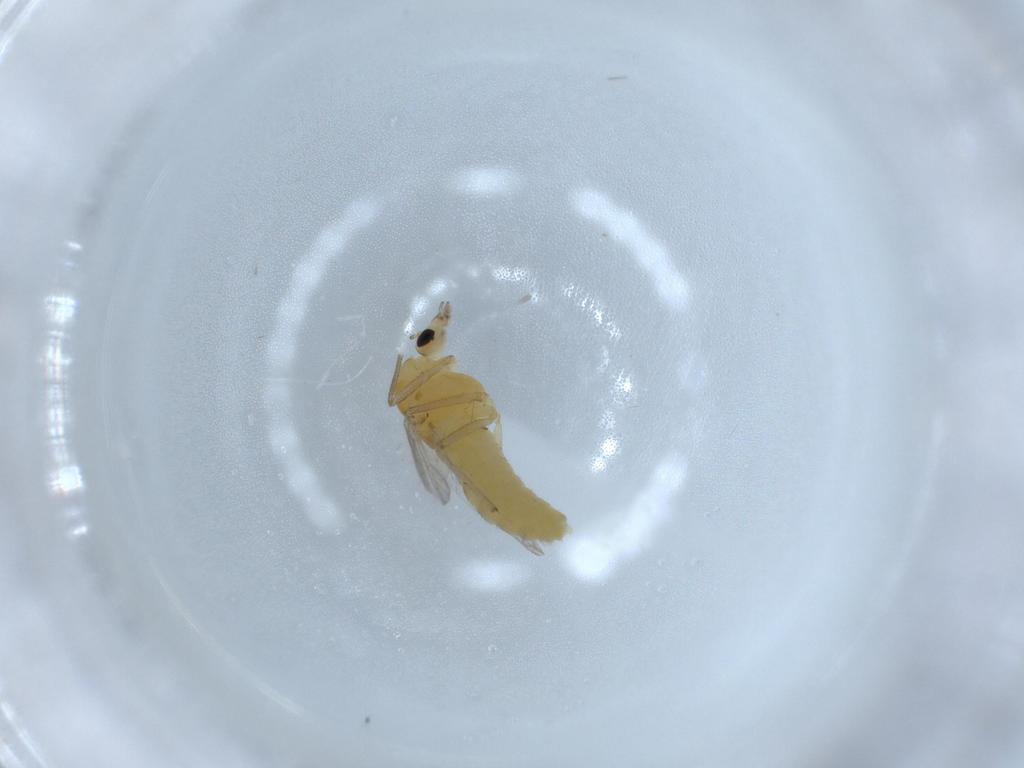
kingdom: Animalia
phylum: Arthropoda
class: Insecta
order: Diptera
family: Chironomidae
